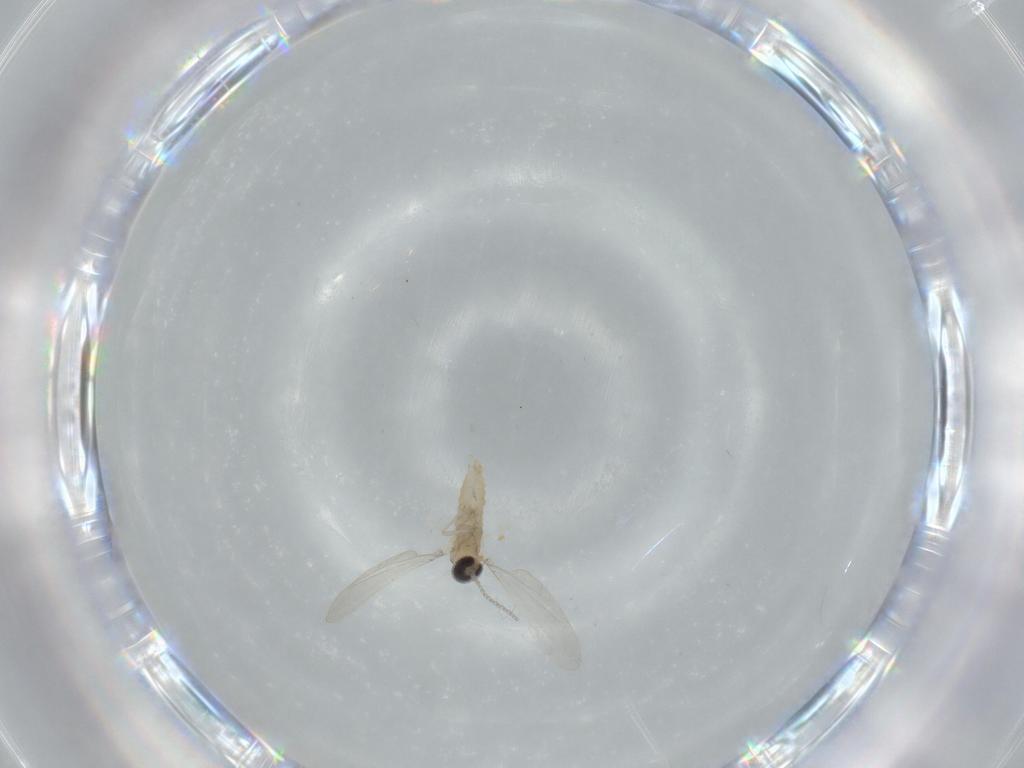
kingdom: Animalia
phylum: Arthropoda
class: Insecta
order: Diptera
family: Cecidomyiidae
